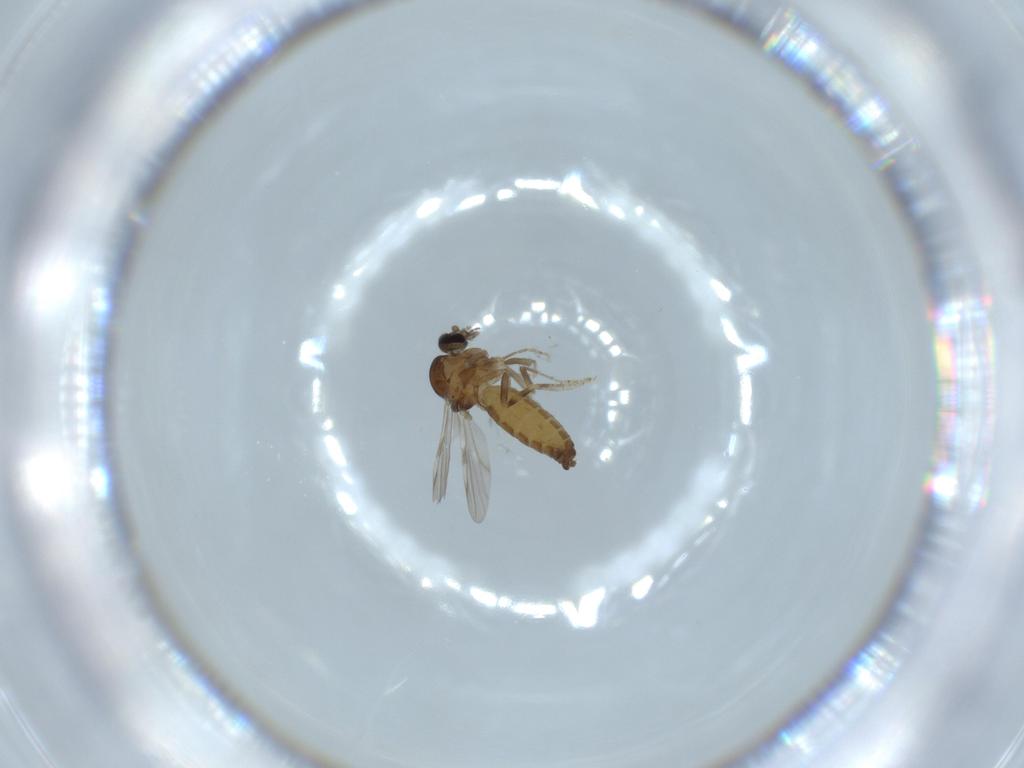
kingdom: Animalia
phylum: Arthropoda
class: Insecta
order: Diptera
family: Ceratopogonidae
